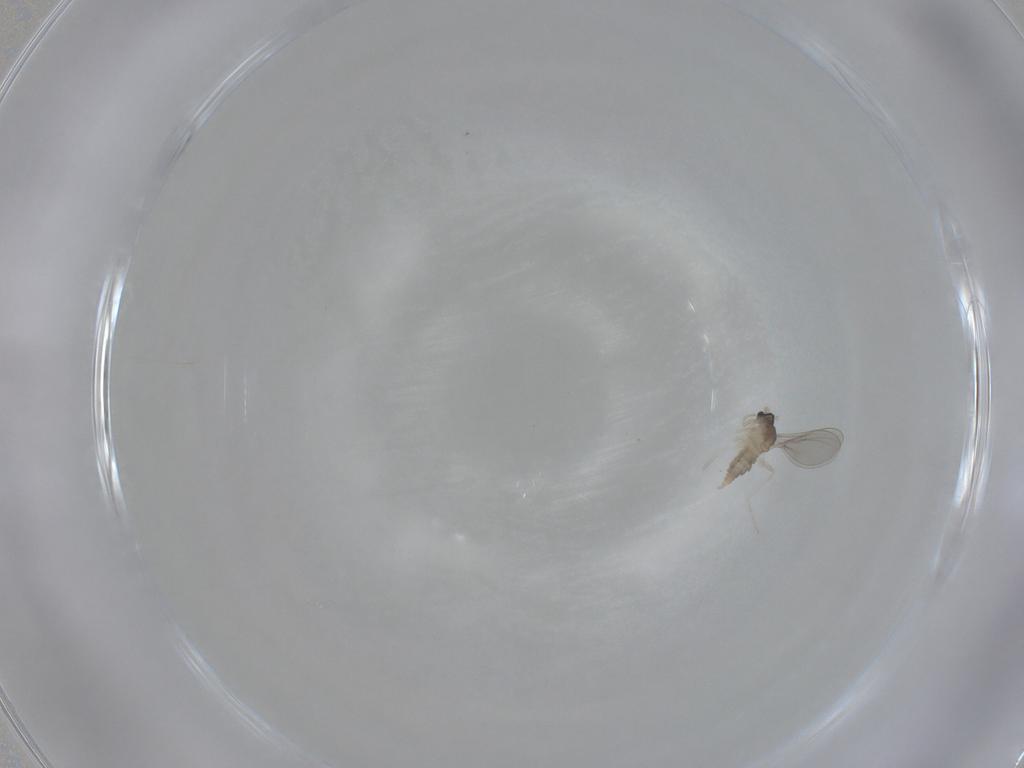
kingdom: Animalia
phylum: Arthropoda
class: Insecta
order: Diptera
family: Cecidomyiidae
